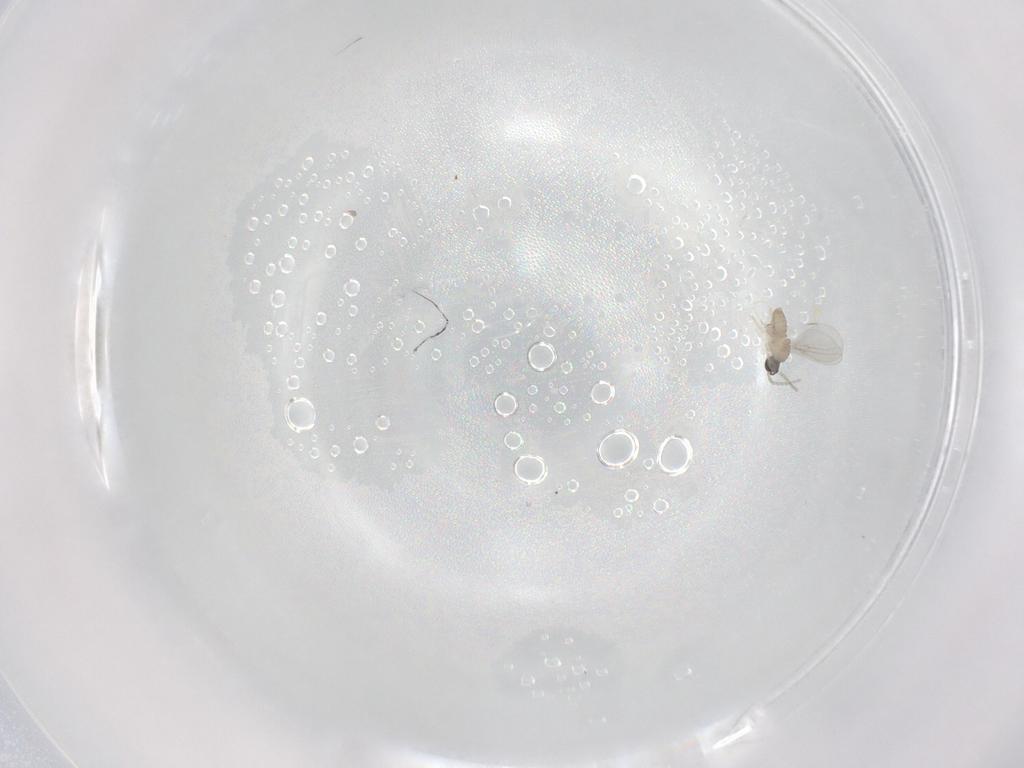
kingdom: Animalia
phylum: Arthropoda
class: Insecta
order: Diptera
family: Cecidomyiidae
